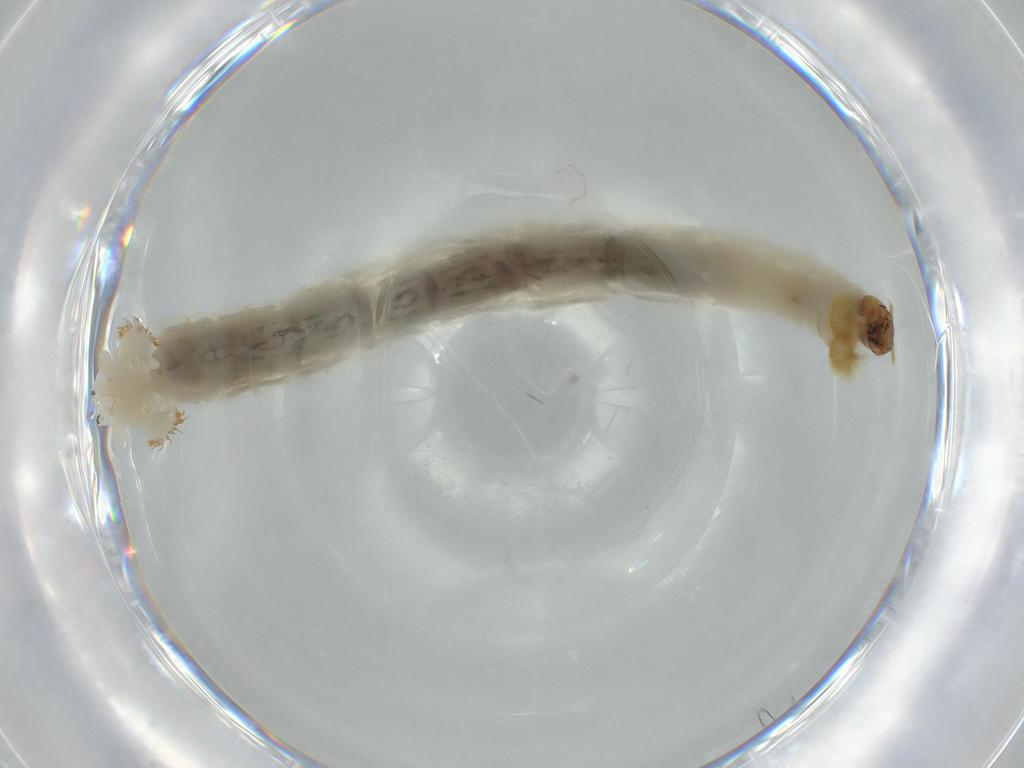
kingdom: Animalia
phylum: Arthropoda
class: Insecta
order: Diptera
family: Chironomidae
